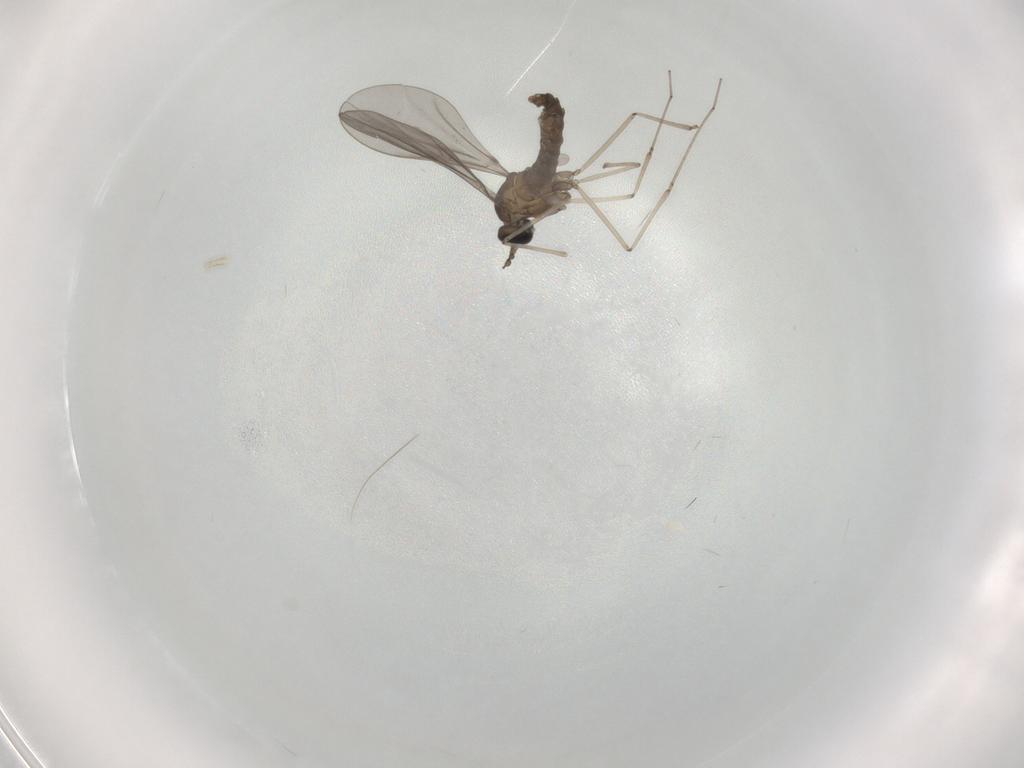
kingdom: Animalia
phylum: Arthropoda
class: Insecta
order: Diptera
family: Cecidomyiidae
